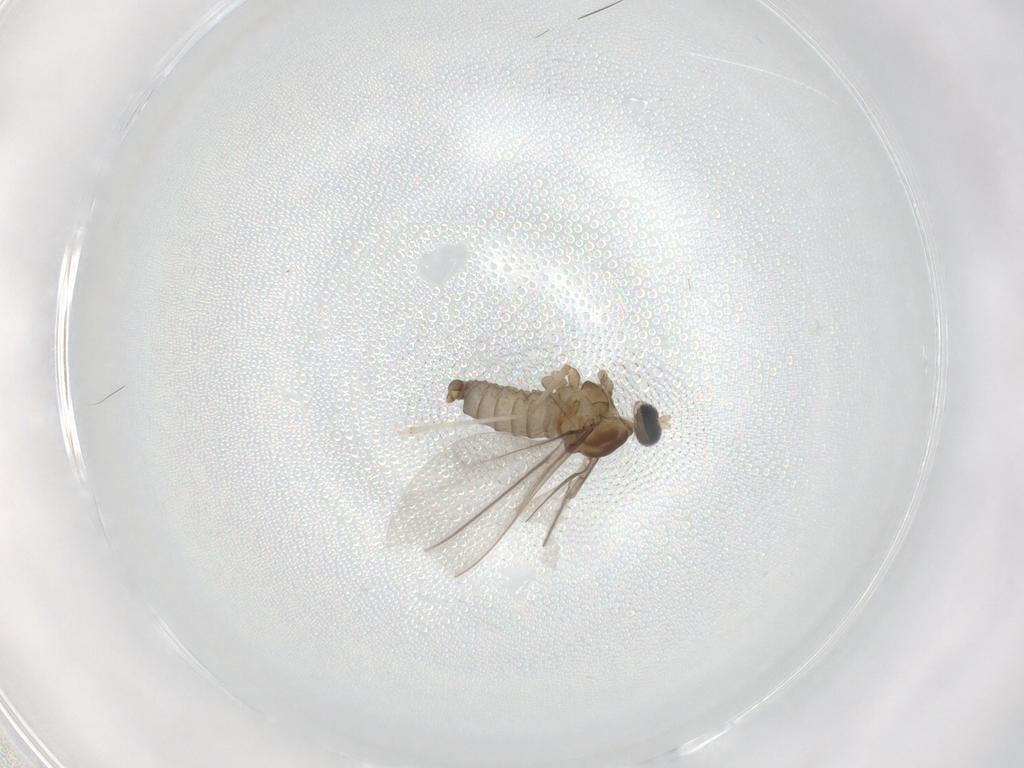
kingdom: Animalia
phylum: Arthropoda
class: Insecta
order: Diptera
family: Cecidomyiidae
